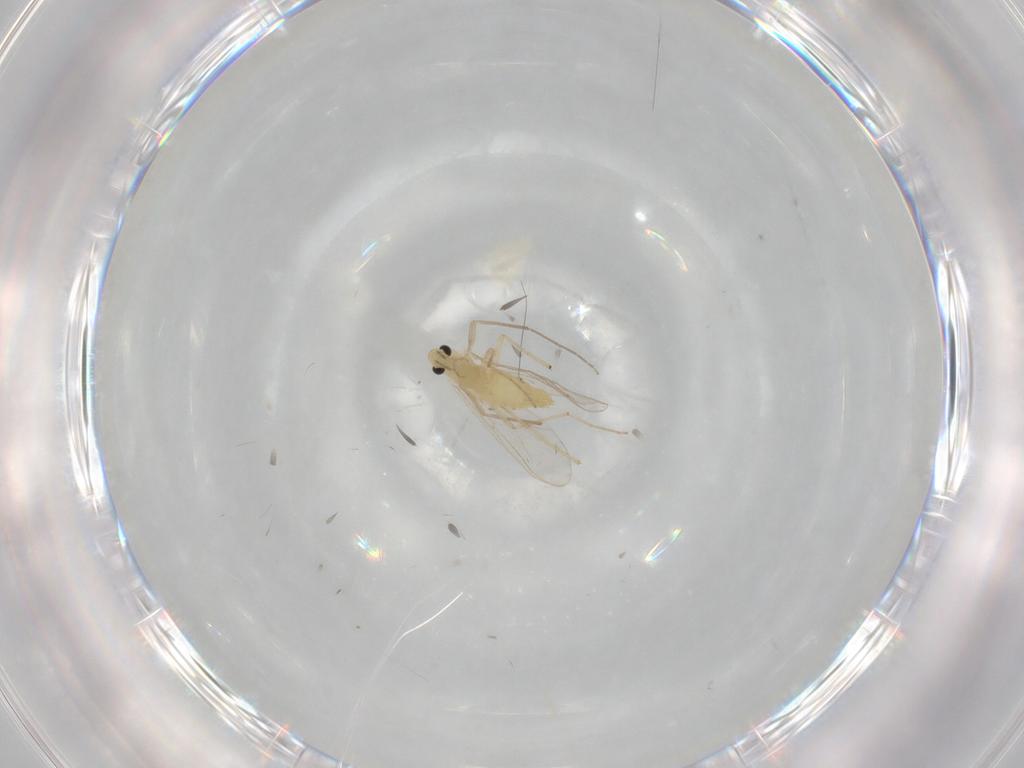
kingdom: Animalia
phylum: Arthropoda
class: Insecta
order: Diptera
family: Chironomidae
